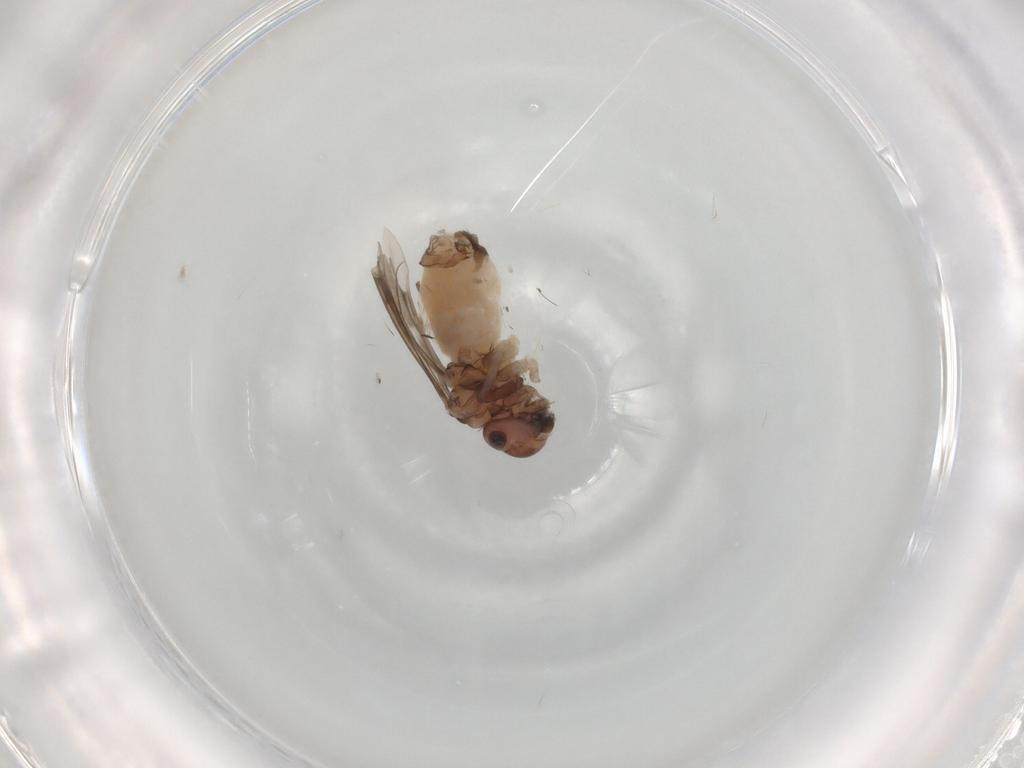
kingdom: Animalia
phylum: Arthropoda
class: Insecta
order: Psocodea
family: Peripsocidae
